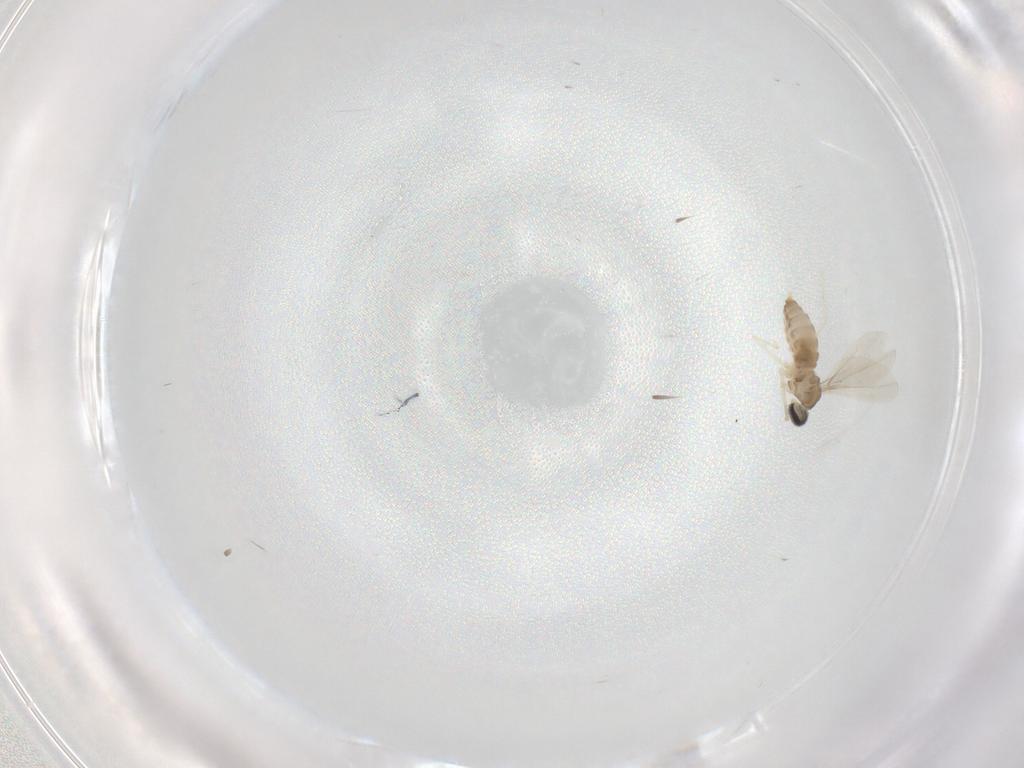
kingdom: Animalia
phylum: Arthropoda
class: Insecta
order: Diptera
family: Cecidomyiidae
